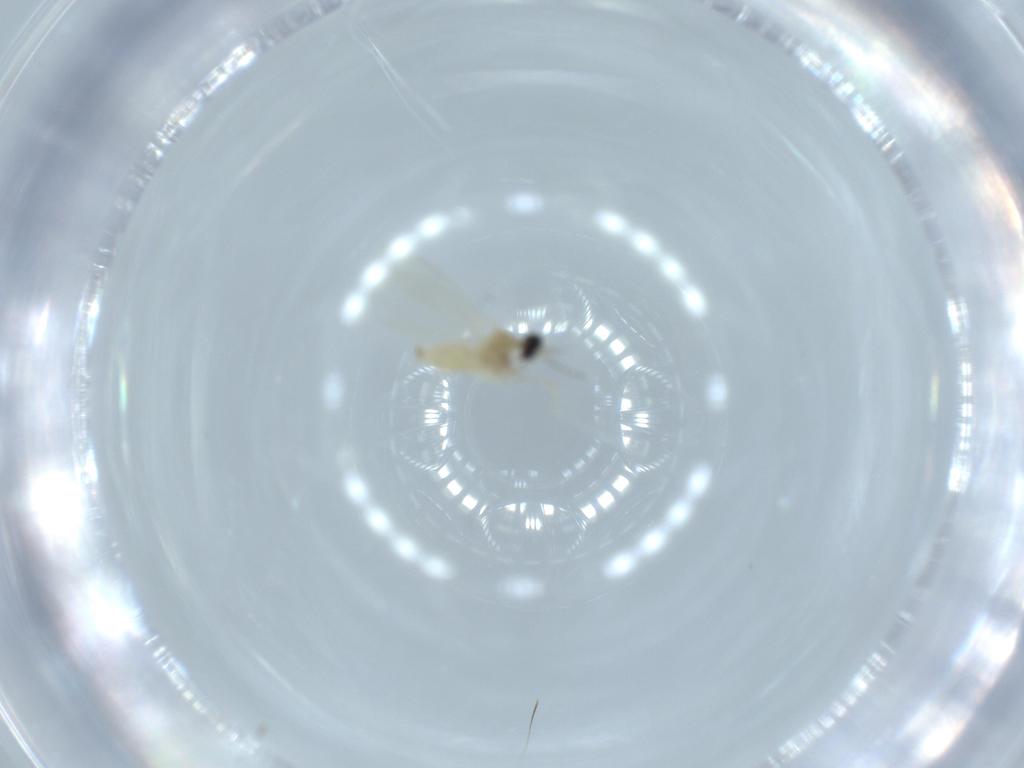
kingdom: Animalia
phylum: Arthropoda
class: Insecta
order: Diptera
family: Cecidomyiidae
